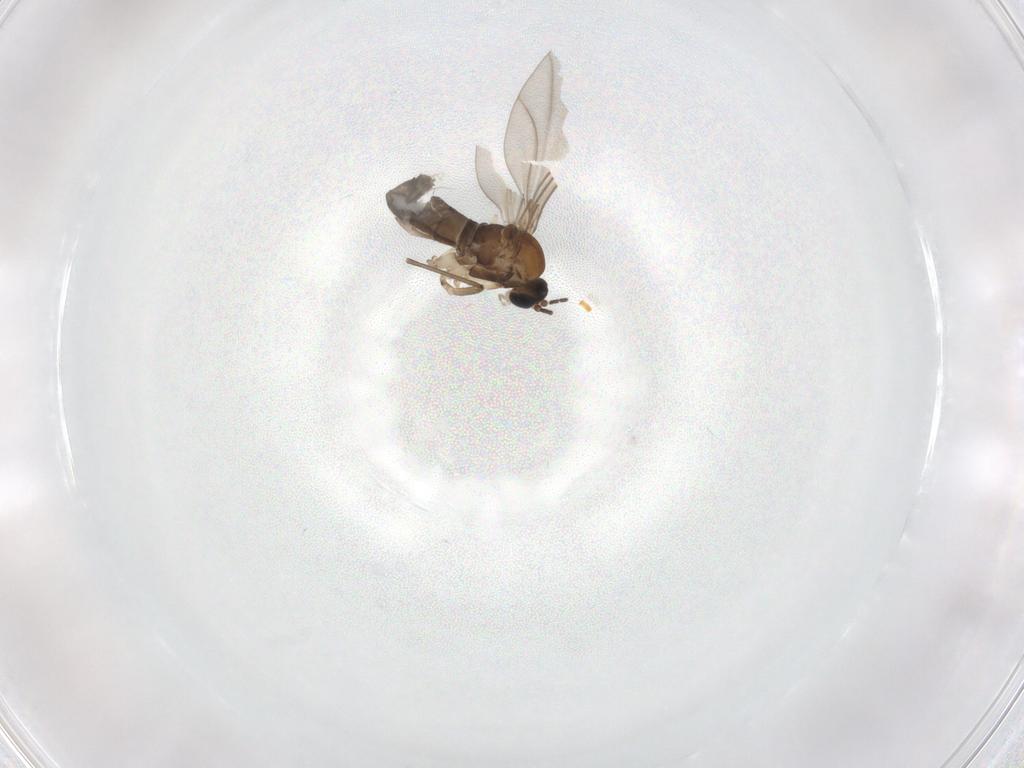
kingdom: Animalia
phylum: Arthropoda
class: Insecta
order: Diptera
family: Sciaridae
